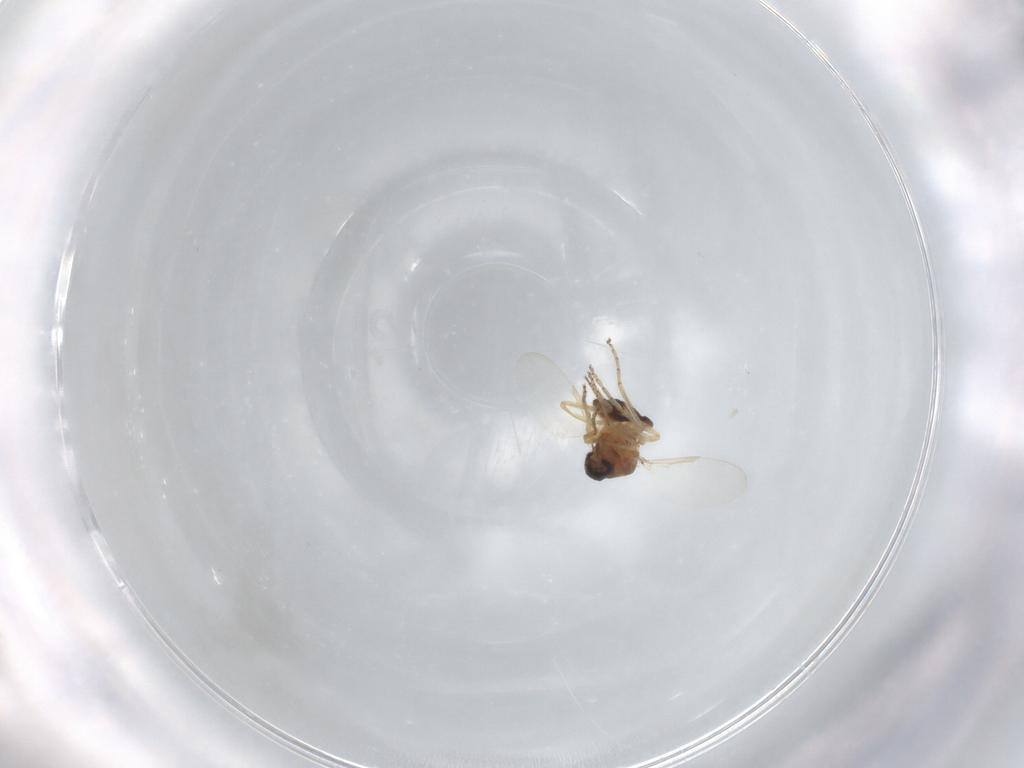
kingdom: Animalia
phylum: Arthropoda
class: Insecta
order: Diptera
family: Ceratopogonidae
